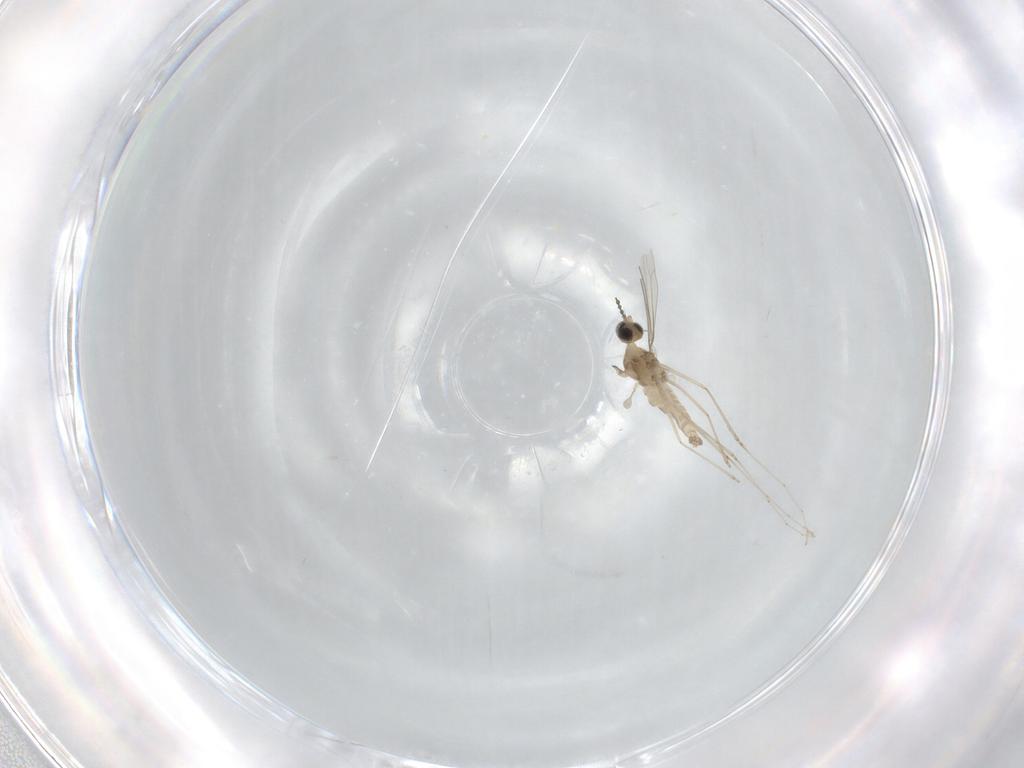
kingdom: Animalia
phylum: Arthropoda
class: Insecta
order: Diptera
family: Cecidomyiidae
